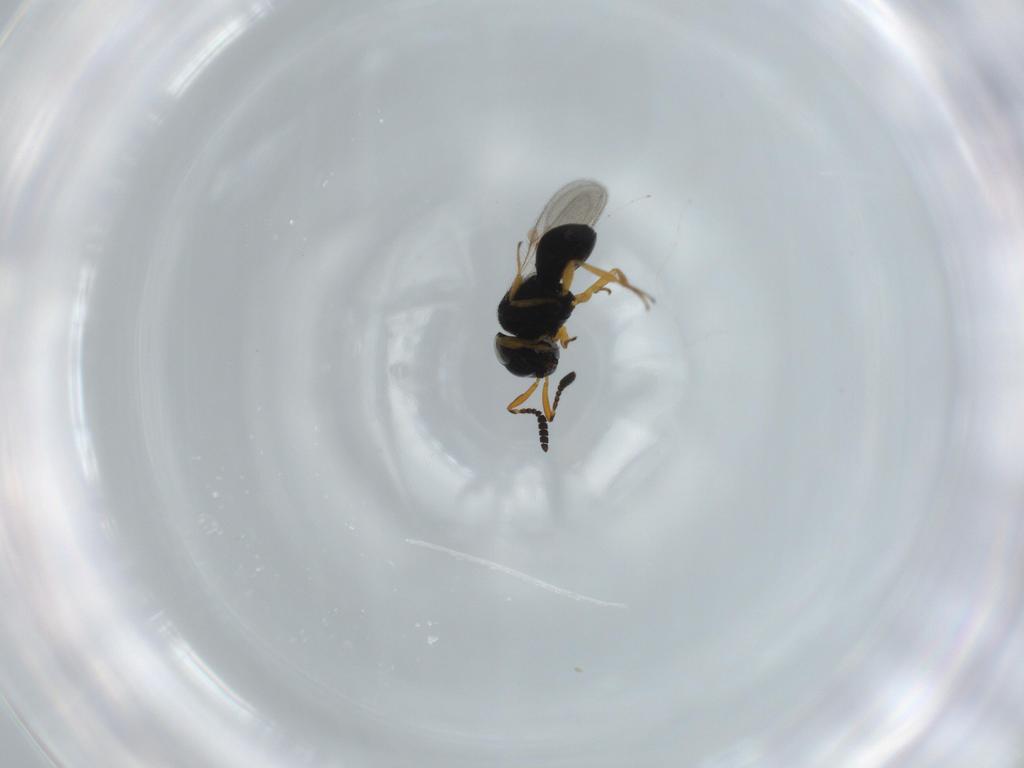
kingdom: Animalia
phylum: Arthropoda
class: Insecta
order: Hymenoptera
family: Scelionidae
